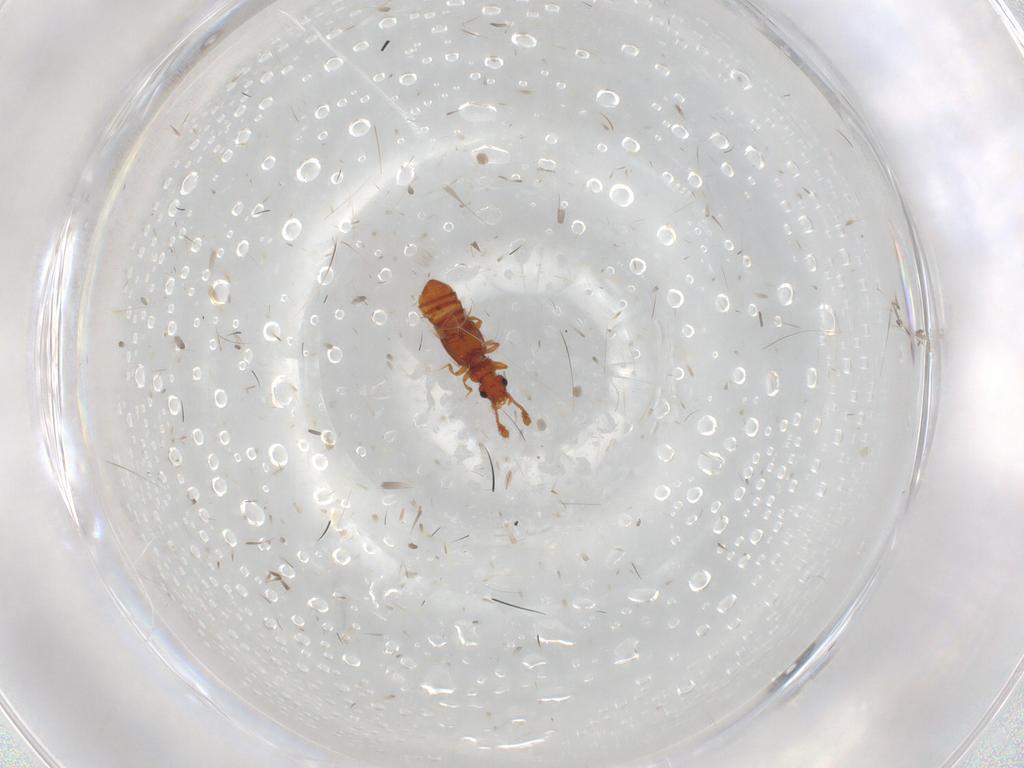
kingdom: Animalia
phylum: Arthropoda
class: Insecta
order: Coleoptera
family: Staphylinidae
